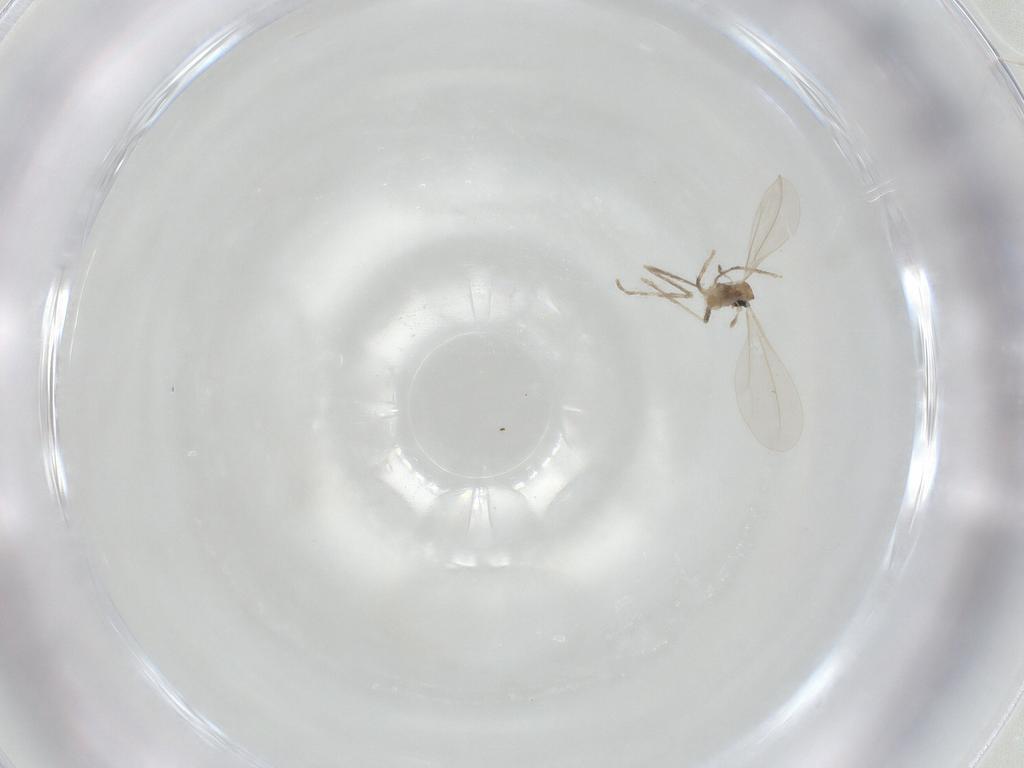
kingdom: Animalia
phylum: Arthropoda
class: Insecta
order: Diptera
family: Cecidomyiidae
